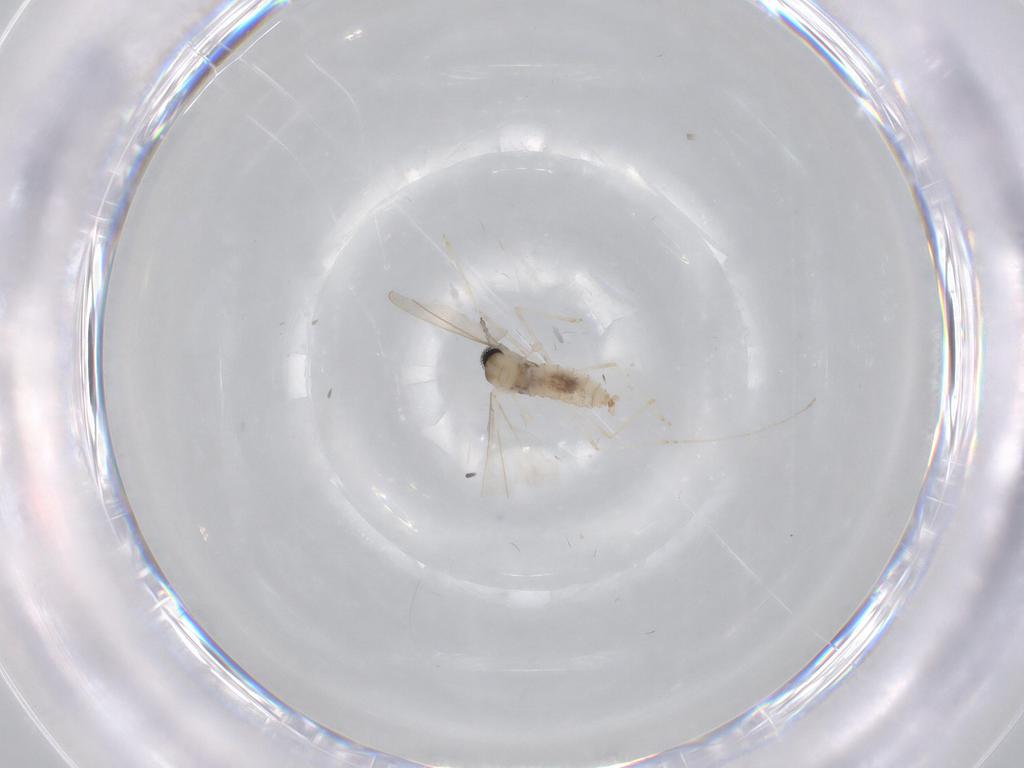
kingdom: Animalia
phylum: Arthropoda
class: Insecta
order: Diptera
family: Cecidomyiidae
